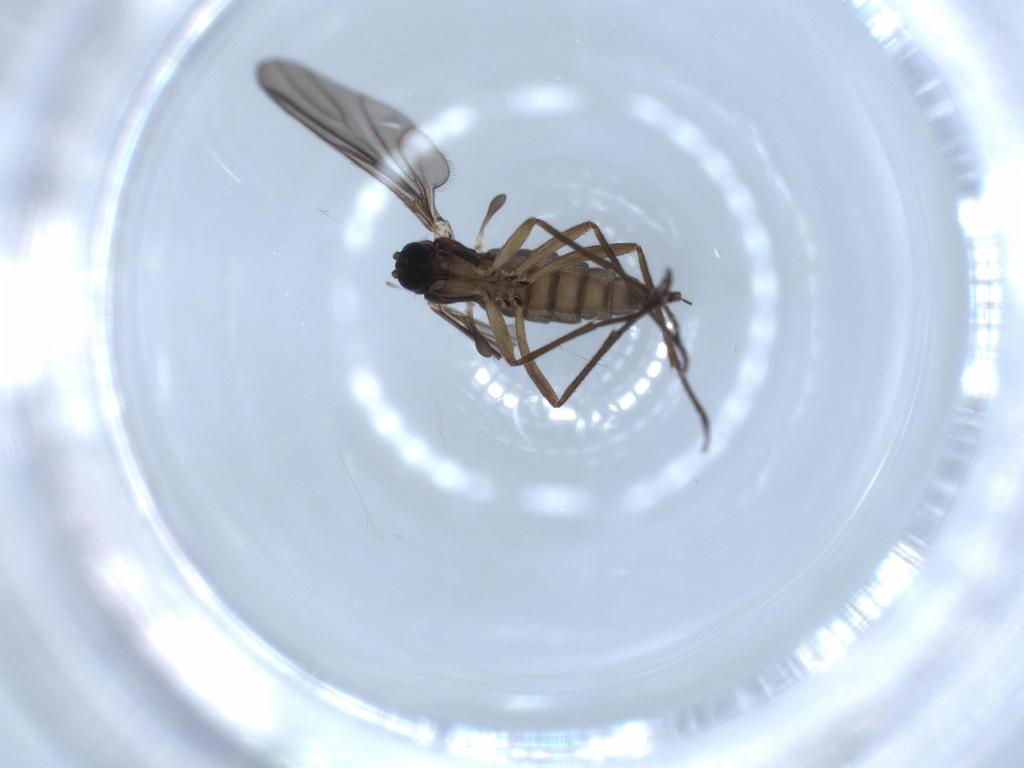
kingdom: Animalia
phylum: Arthropoda
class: Insecta
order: Diptera
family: Sciaridae
